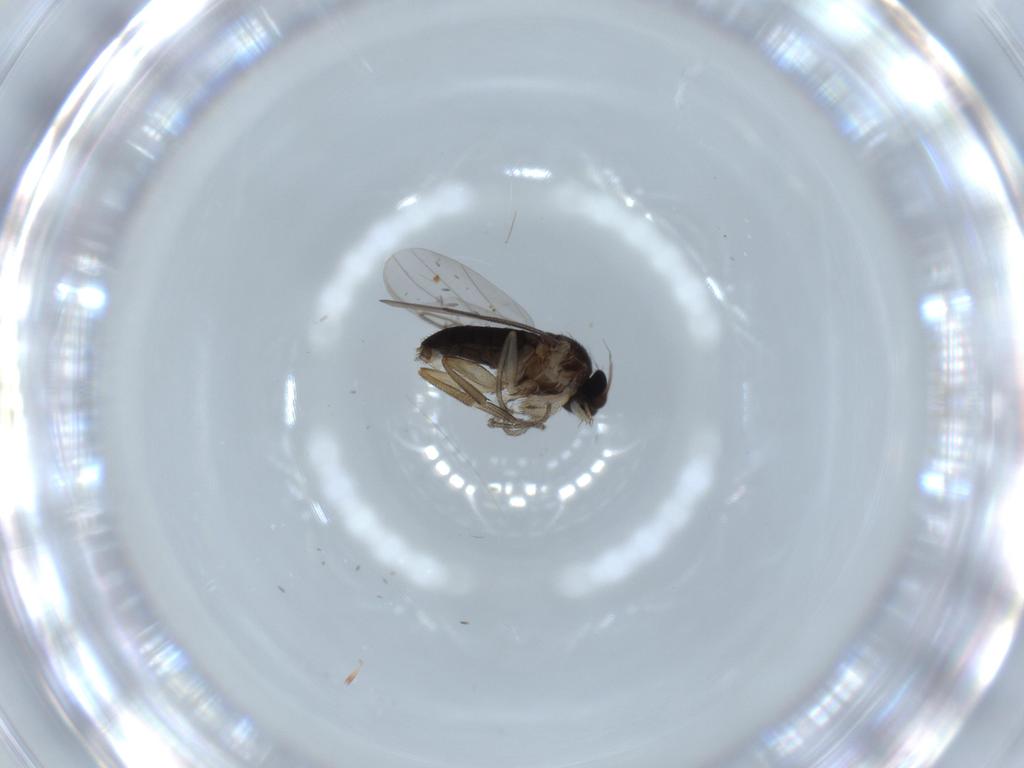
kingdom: Animalia
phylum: Arthropoda
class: Insecta
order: Diptera
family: Phoridae
